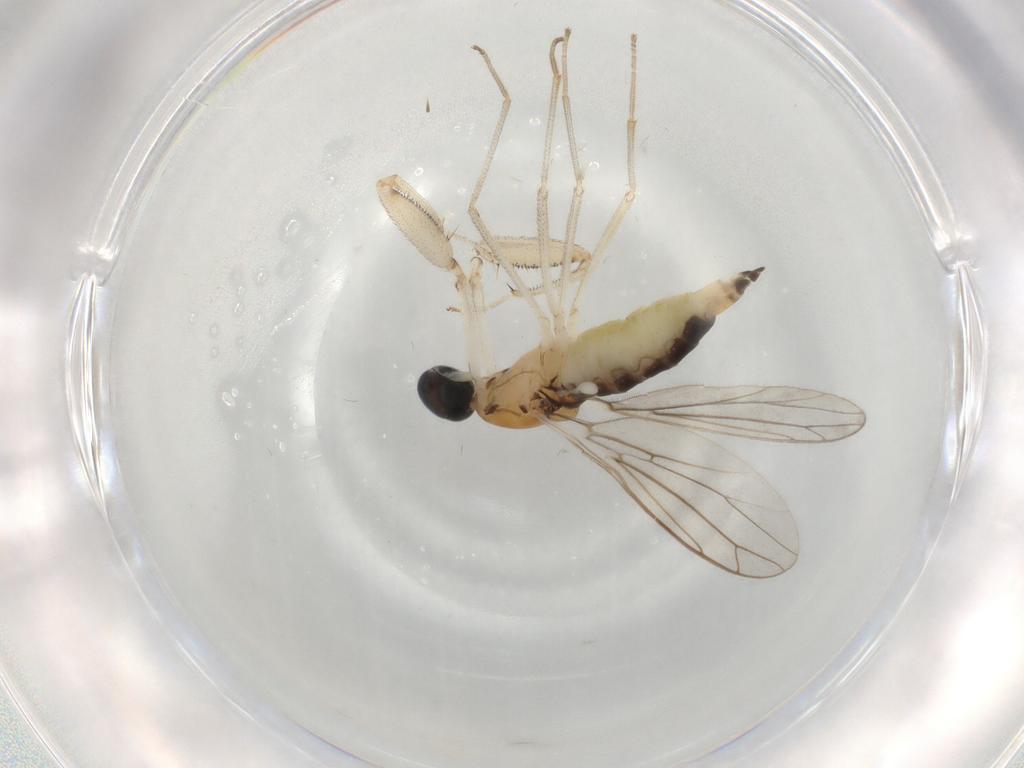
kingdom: Animalia
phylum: Arthropoda
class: Insecta
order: Diptera
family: Empididae
